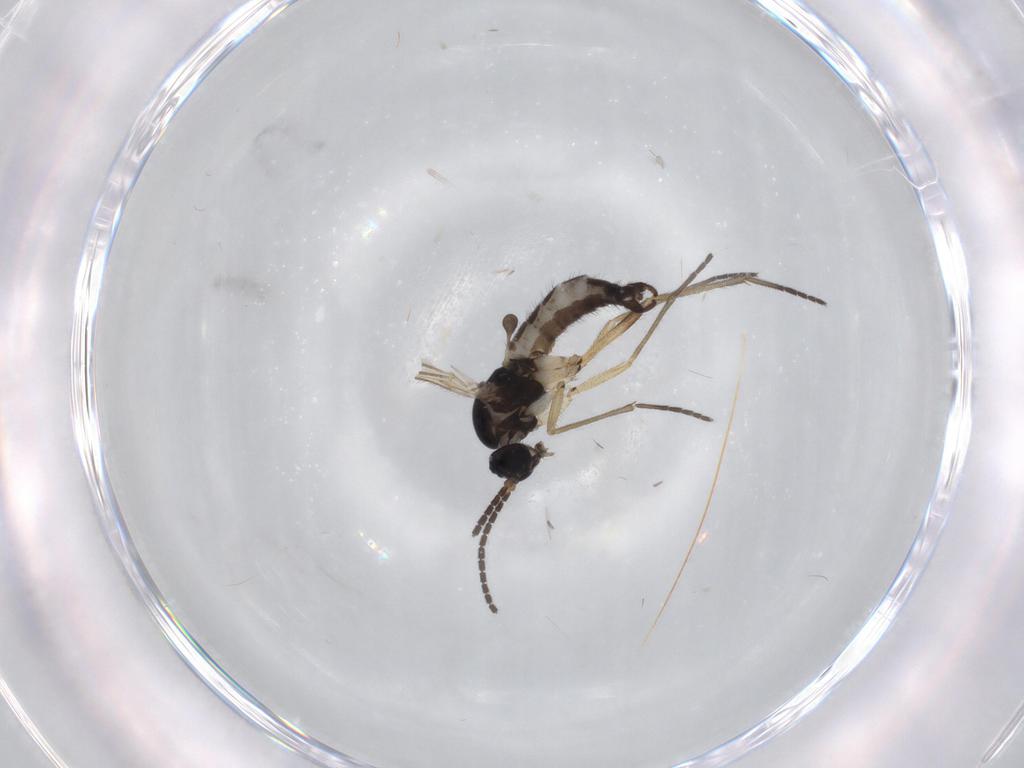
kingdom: Animalia
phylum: Arthropoda
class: Insecta
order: Diptera
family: Sciaridae
